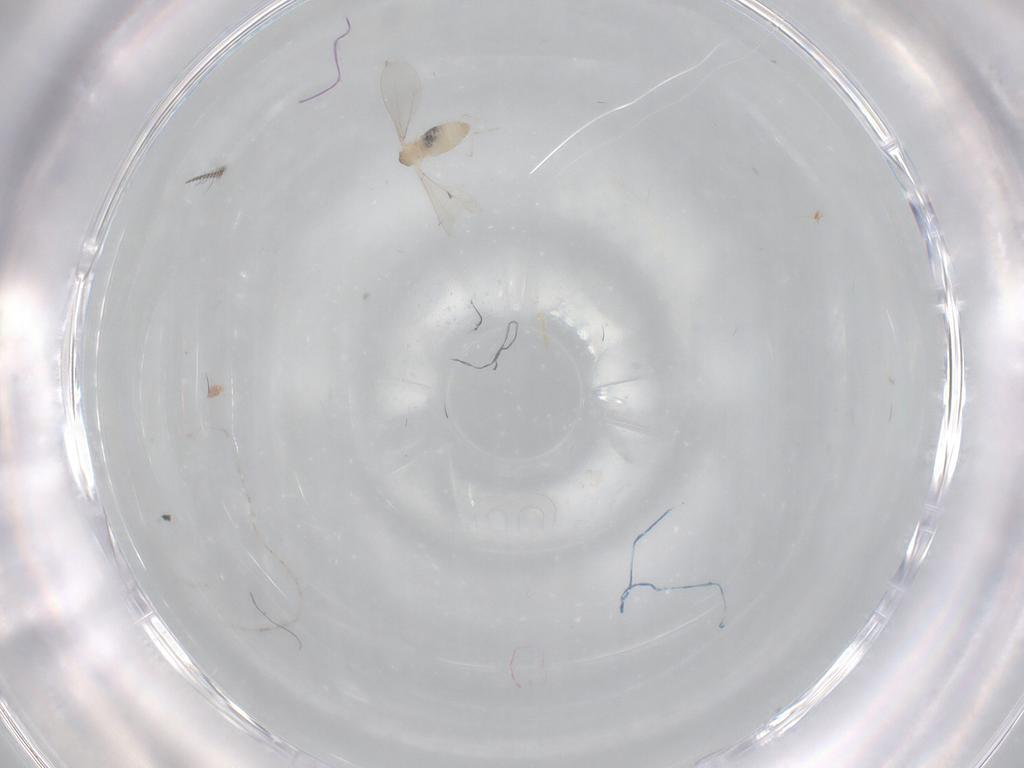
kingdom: Animalia
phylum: Arthropoda
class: Insecta
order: Diptera
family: Cecidomyiidae
